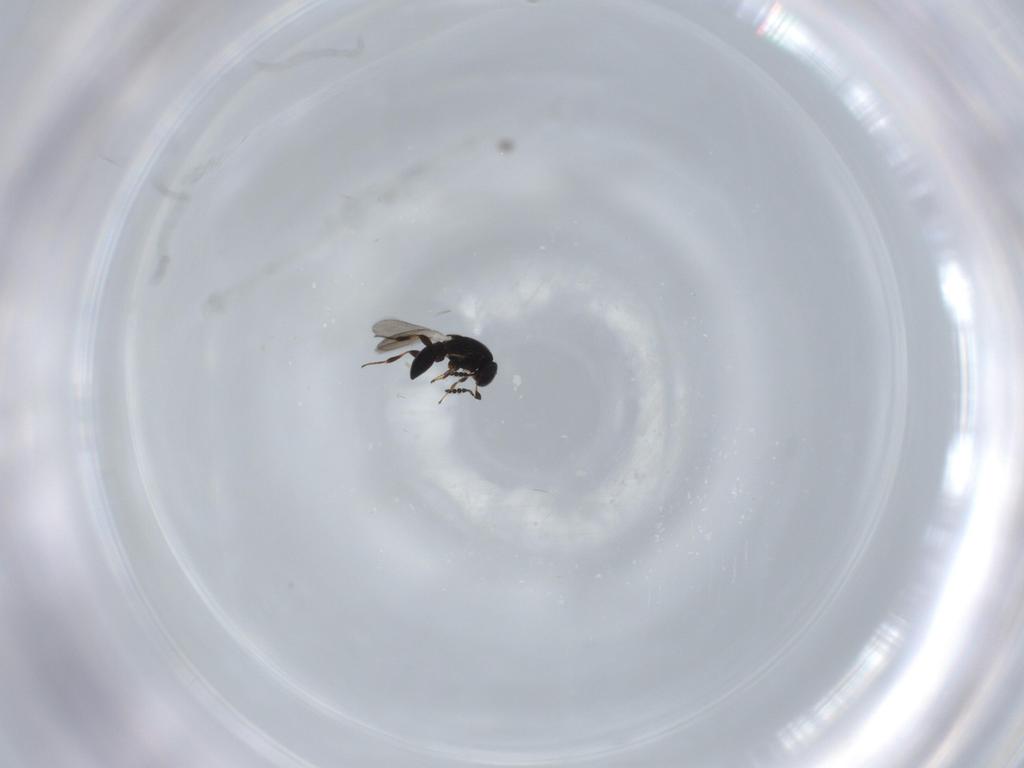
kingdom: Animalia
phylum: Arthropoda
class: Insecta
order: Hymenoptera
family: Platygastridae
